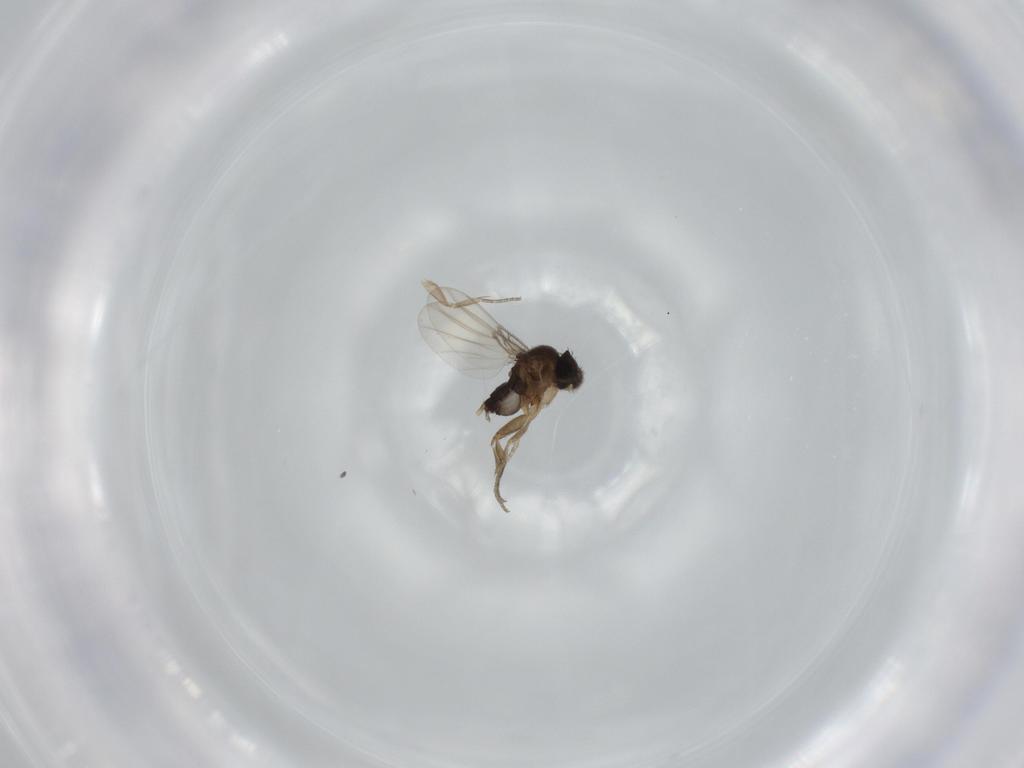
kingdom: Animalia
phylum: Arthropoda
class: Insecta
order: Diptera
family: Phoridae
